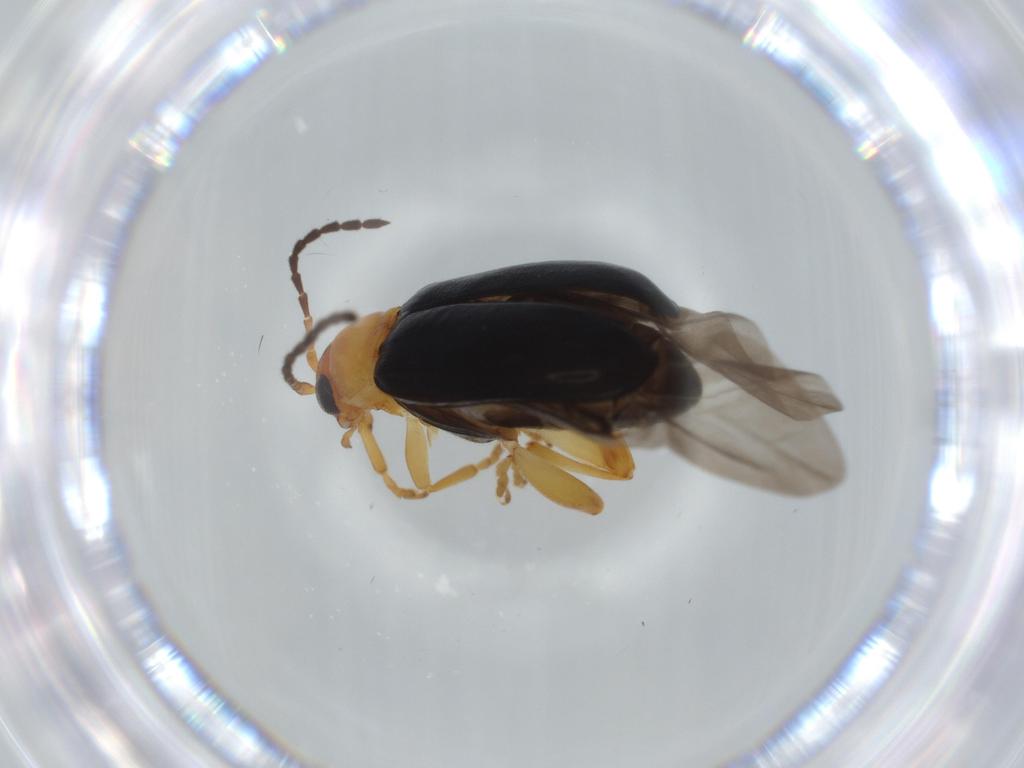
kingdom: Animalia
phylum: Arthropoda
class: Insecta
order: Coleoptera
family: Chrysomelidae
